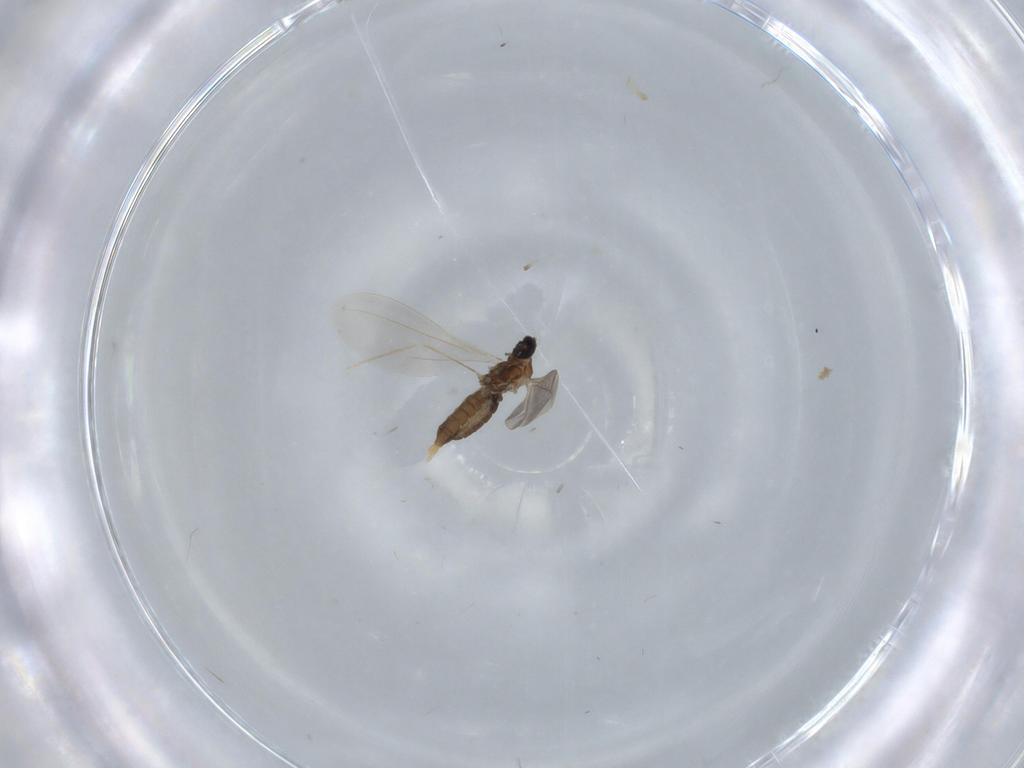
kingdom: Animalia
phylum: Arthropoda
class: Insecta
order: Diptera
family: Cecidomyiidae
